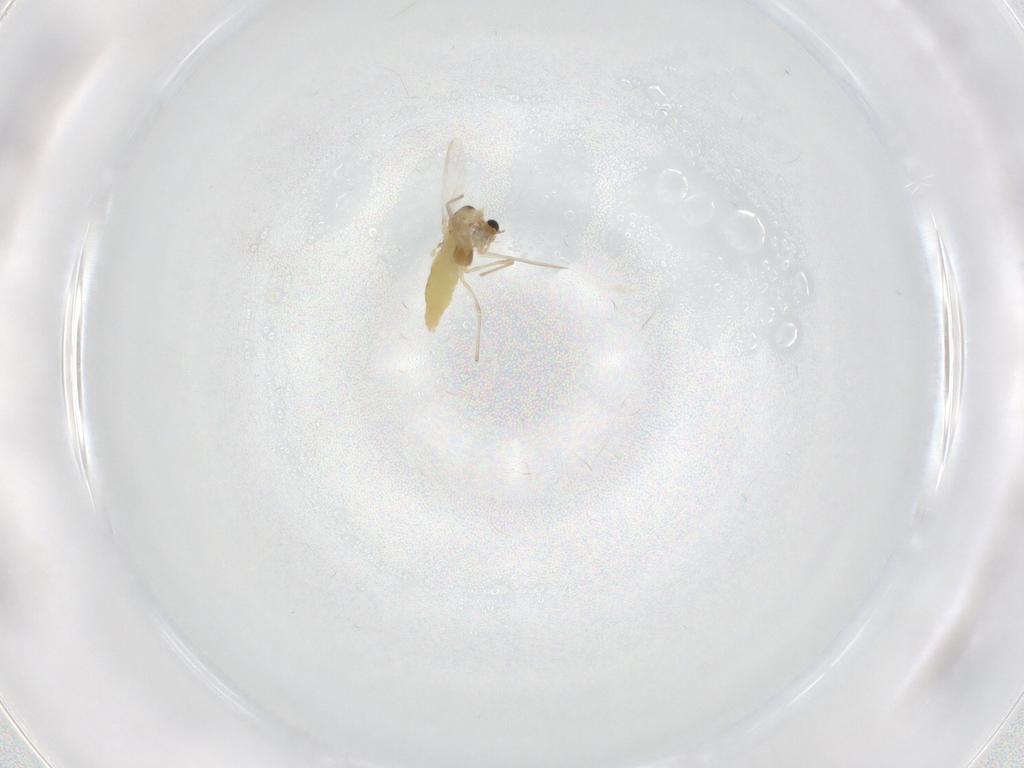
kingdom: Animalia
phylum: Arthropoda
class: Insecta
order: Diptera
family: Chironomidae
